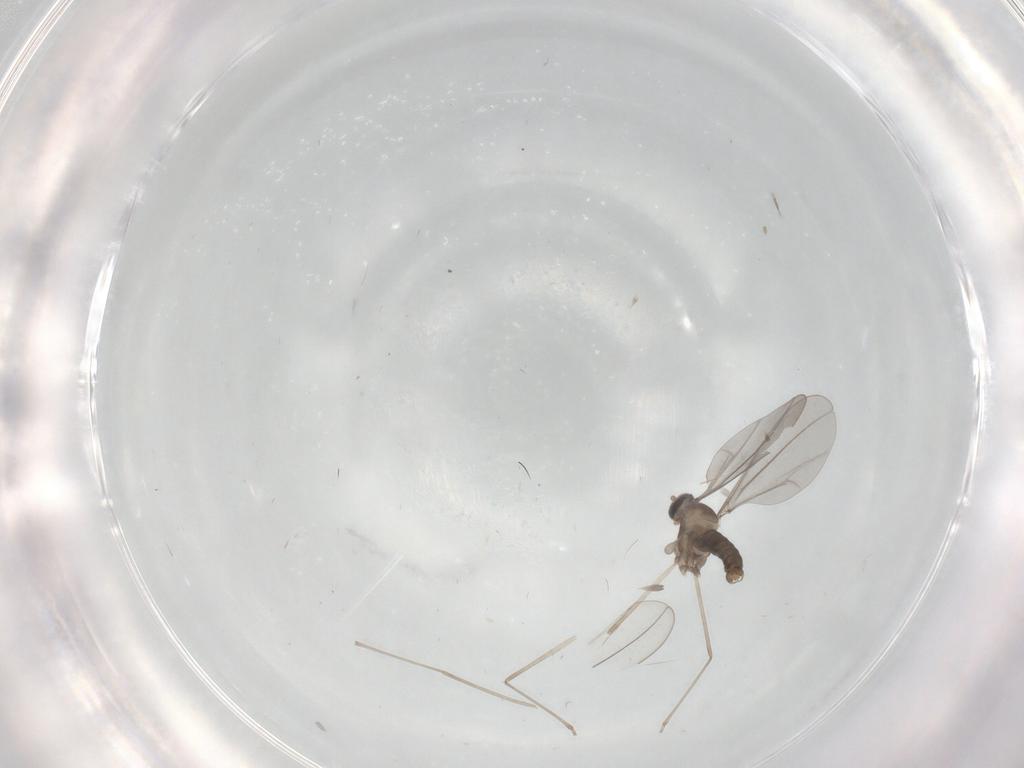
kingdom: Animalia
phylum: Arthropoda
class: Insecta
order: Diptera
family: Cecidomyiidae
